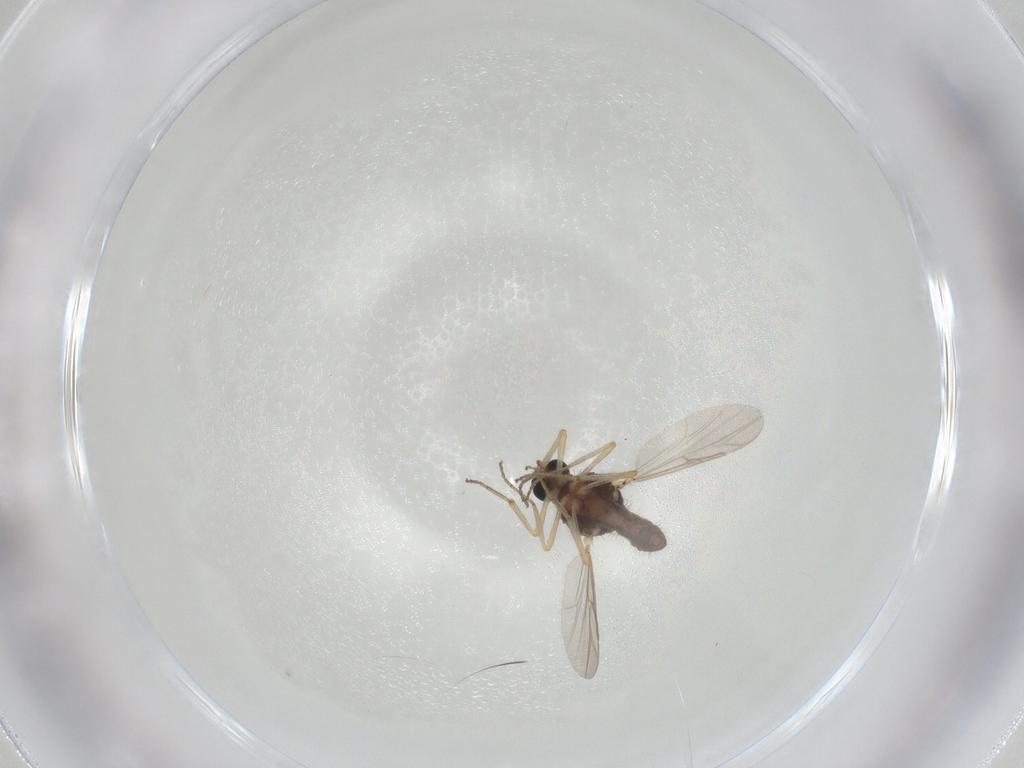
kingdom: Animalia
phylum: Arthropoda
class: Insecta
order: Diptera
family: Ceratopogonidae
